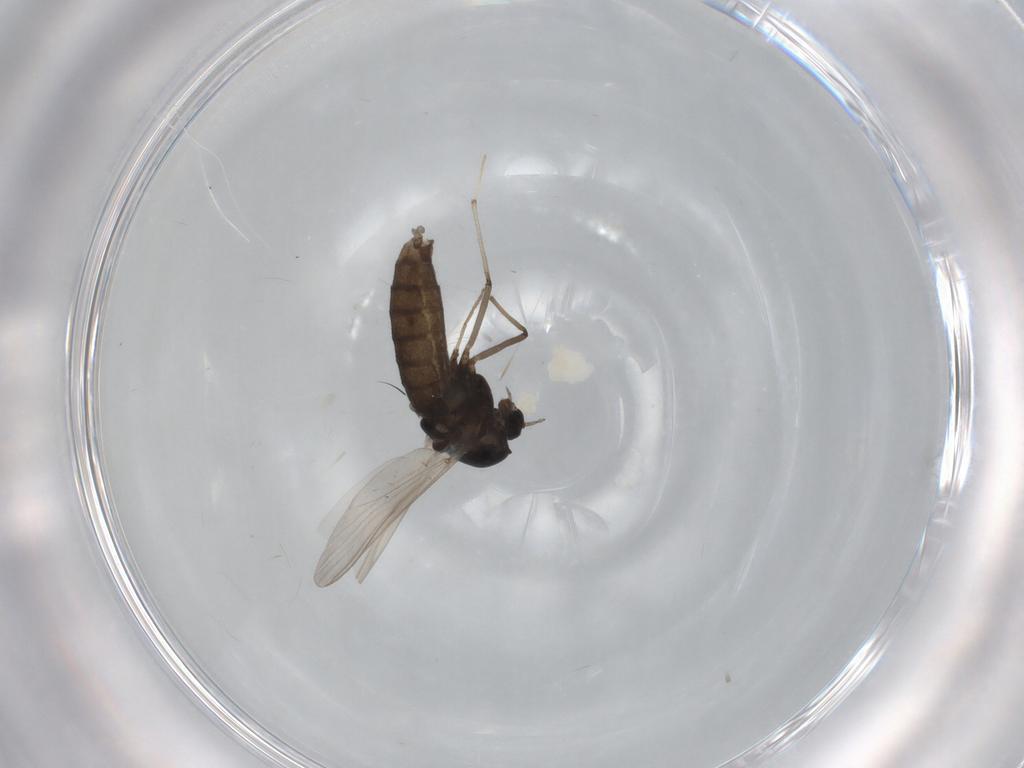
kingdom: Animalia
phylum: Arthropoda
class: Insecta
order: Diptera
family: Chironomidae
